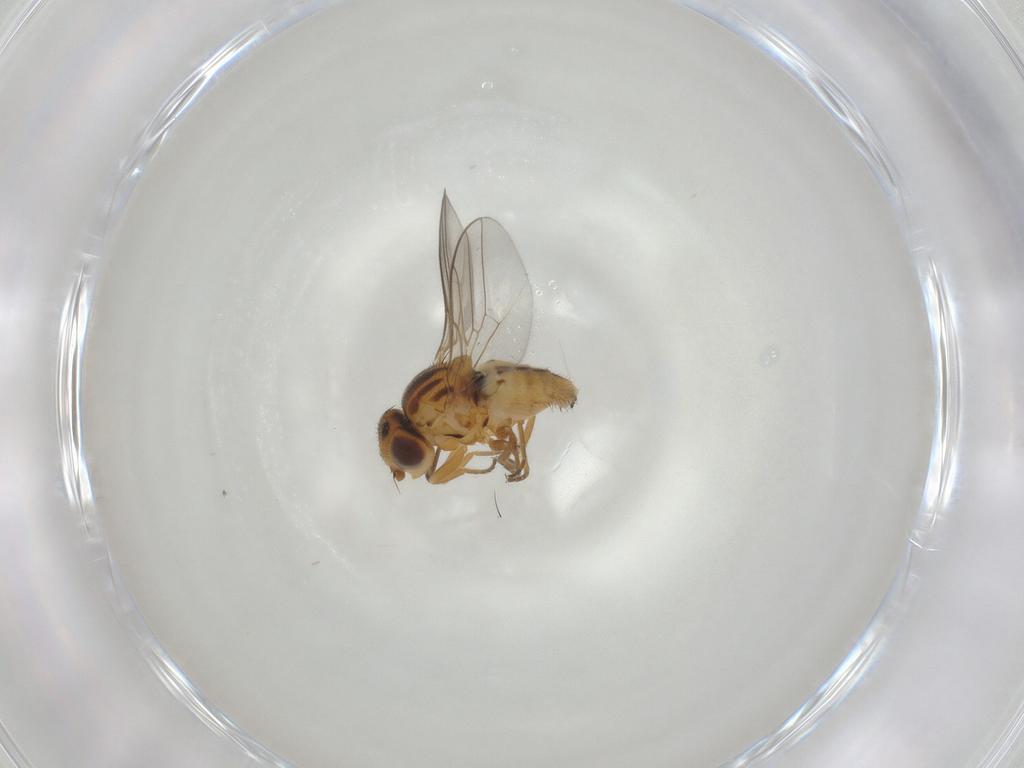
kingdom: Animalia
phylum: Arthropoda
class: Insecta
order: Diptera
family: Chloropidae
